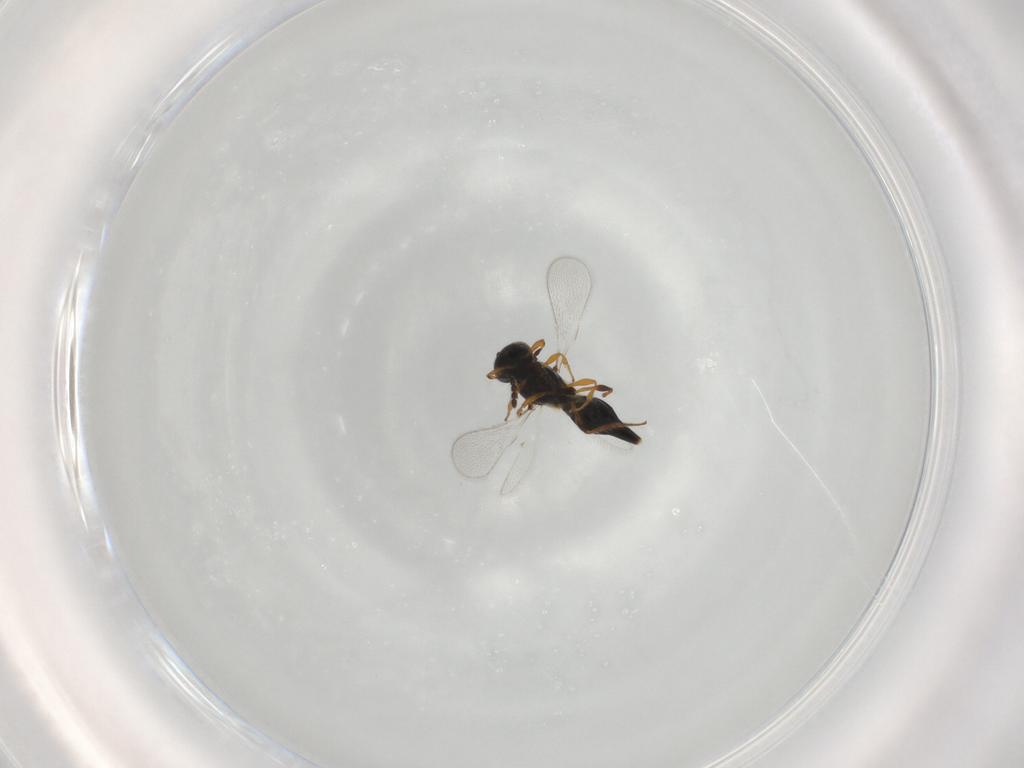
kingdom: Animalia
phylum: Arthropoda
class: Insecta
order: Hymenoptera
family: Platygastridae
